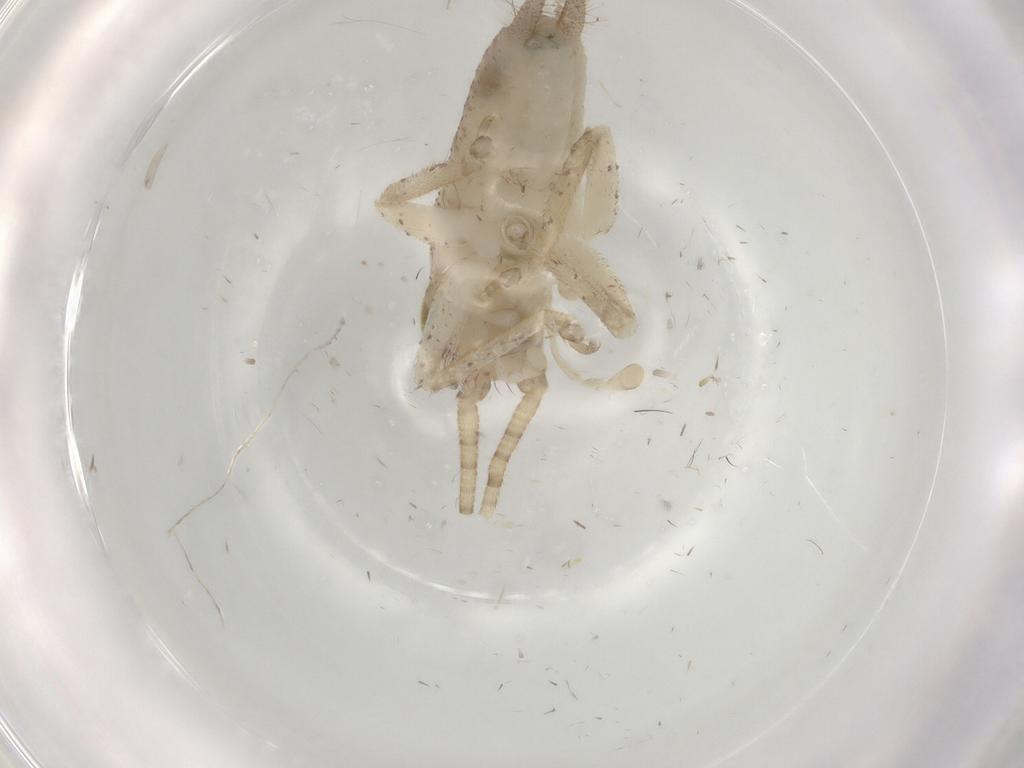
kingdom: Animalia
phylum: Arthropoda
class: Insecta
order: Orthoptera
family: Gryllidae
